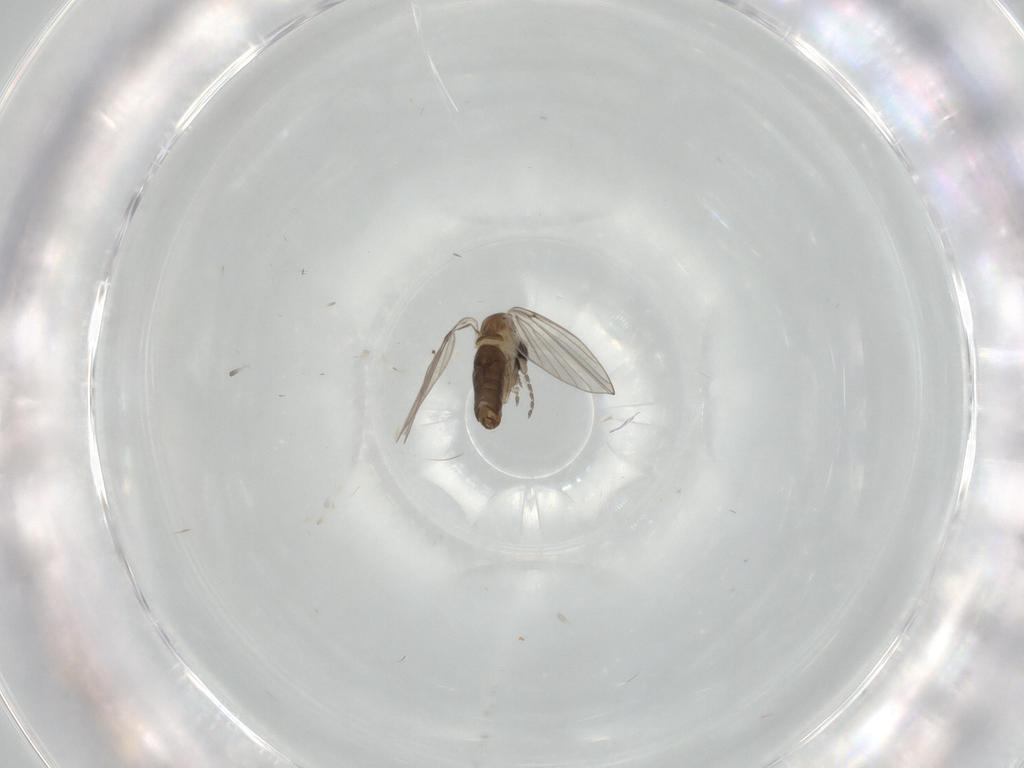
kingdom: Animalia
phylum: Arthropoda
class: Insecta
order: Diptera
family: Psychodidae
